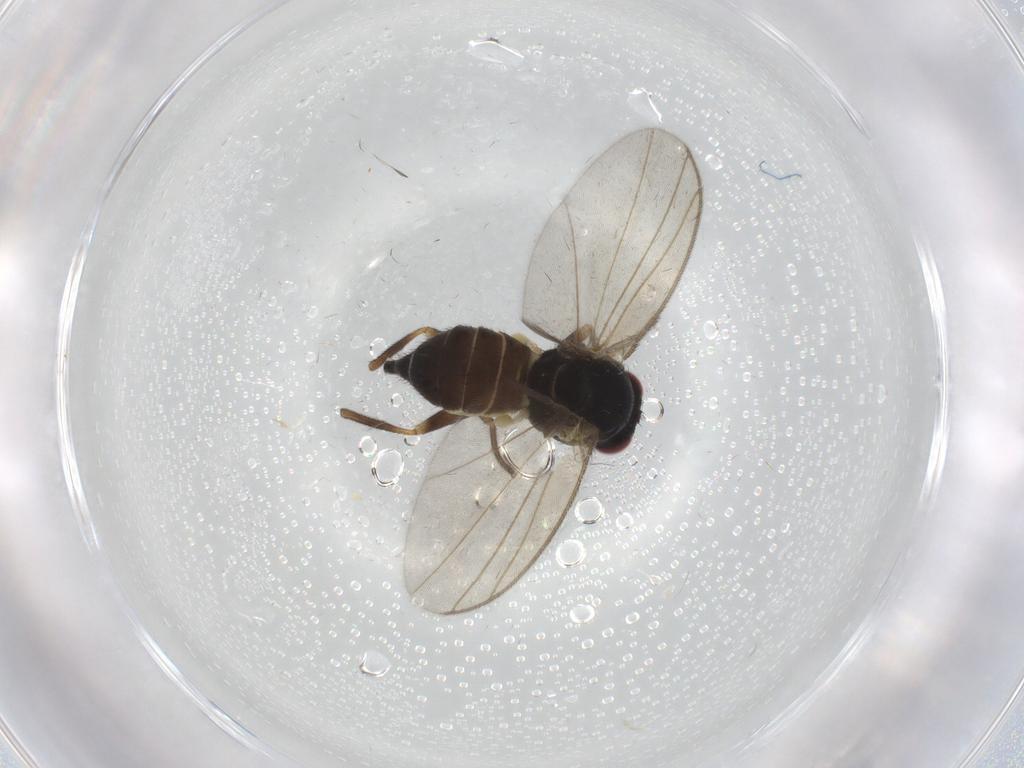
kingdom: Animalia
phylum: Arthropoda
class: Insecta
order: Diptera
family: Agromyzidae
